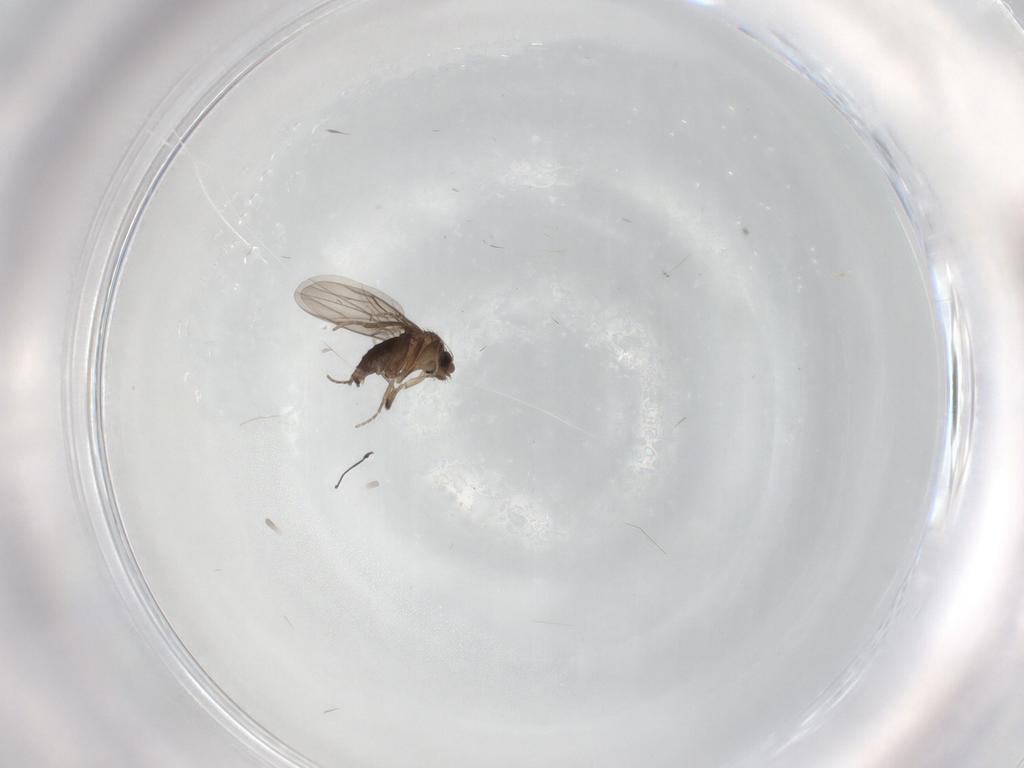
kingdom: Animalia
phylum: Arthropoda
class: Insecta
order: Diptera
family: Phoridae
